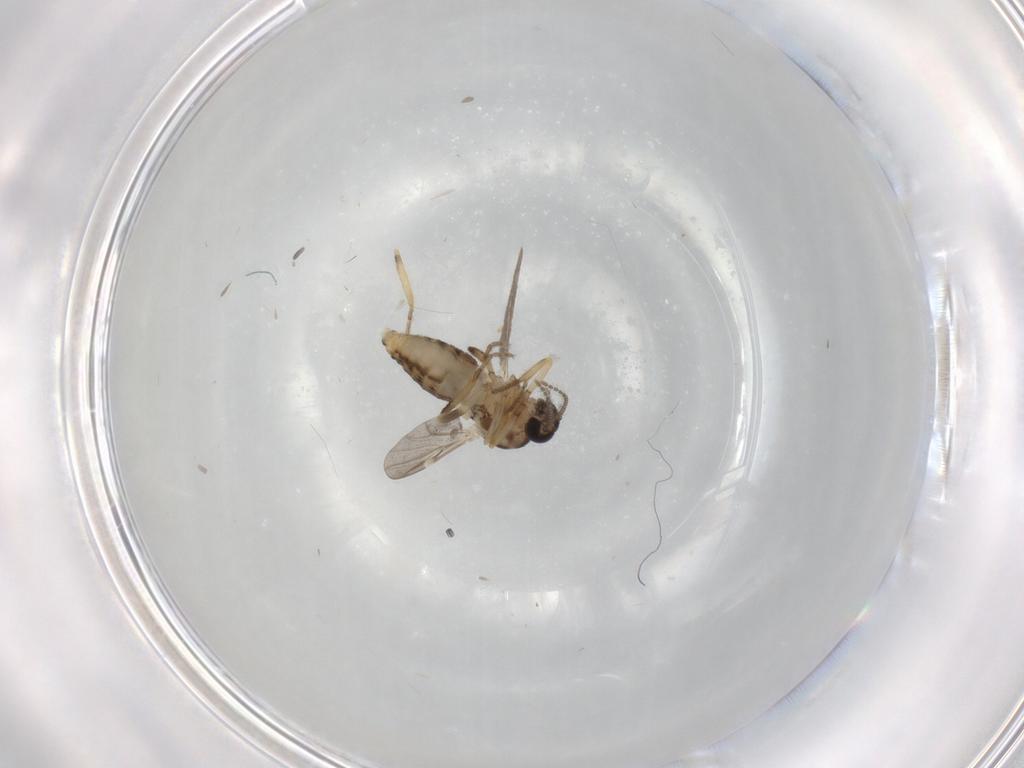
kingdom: Animalia
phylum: Arthropoda
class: Insecta
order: Diptera
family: Ceratopogonidae
